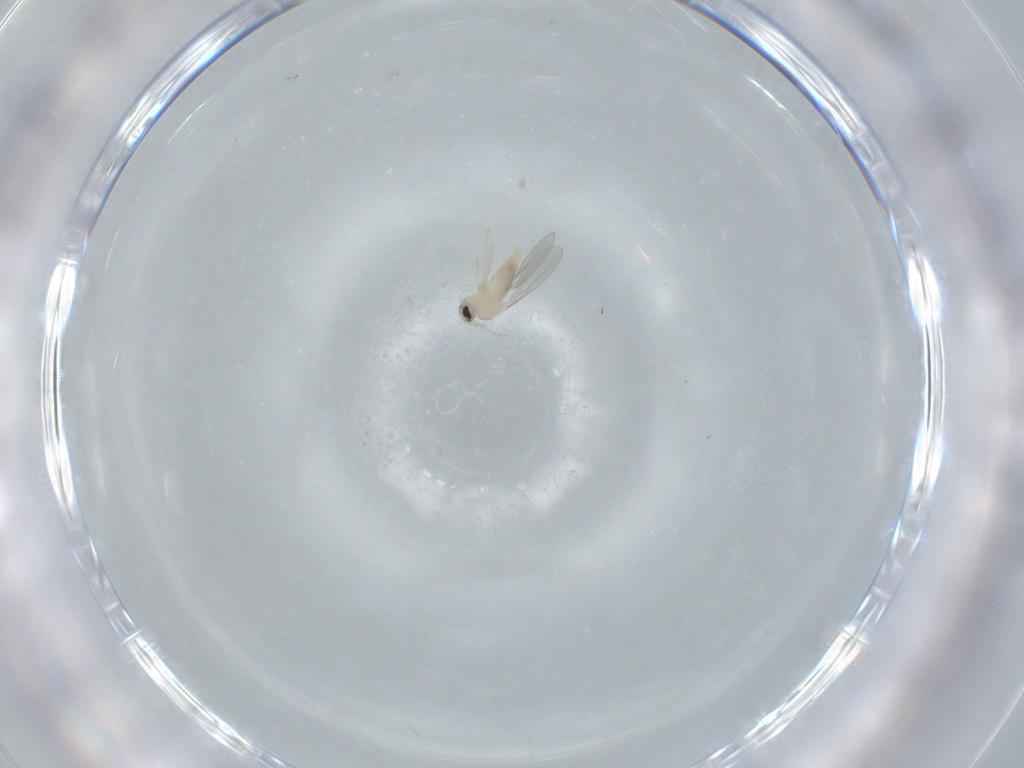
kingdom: Animalia
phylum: Arthropoda
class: Insecta
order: Diptera
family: Cecidomyiidae
